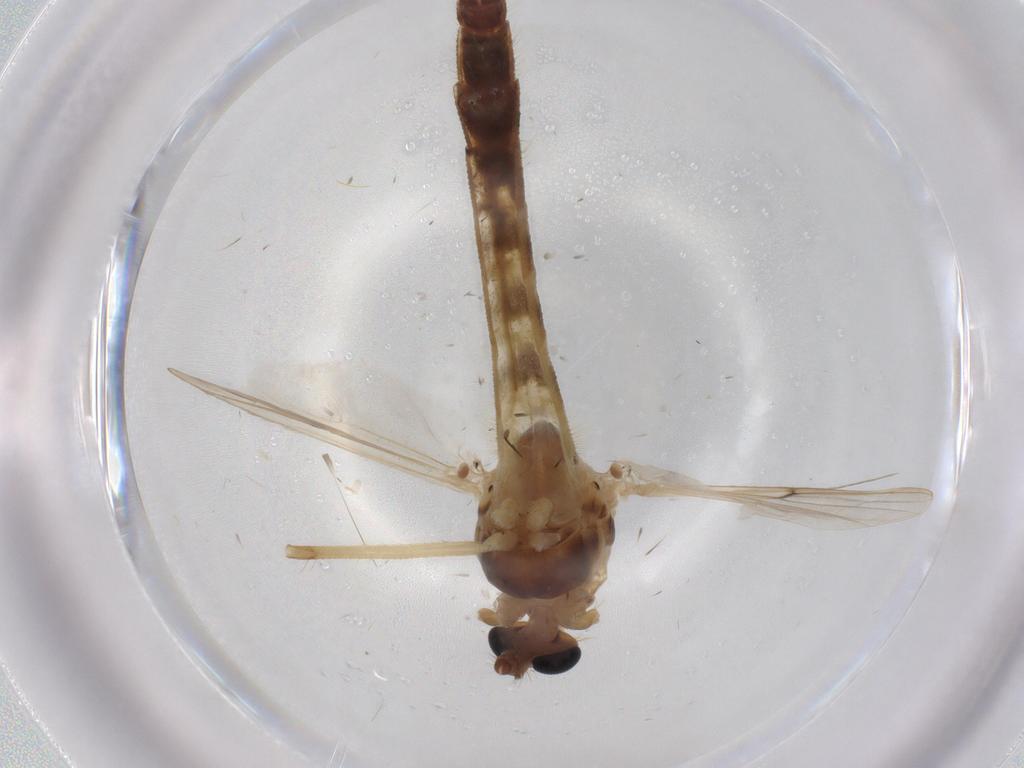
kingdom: Animalia
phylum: Arthropoda
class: Insecta
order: Diptera
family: Chironomidae
